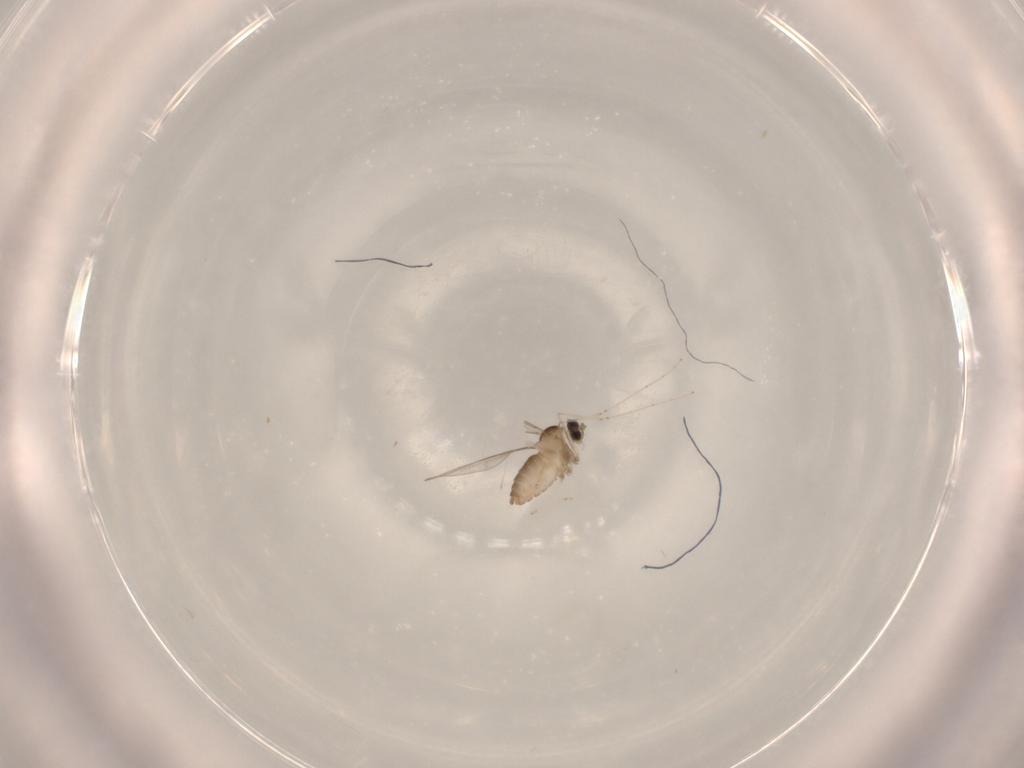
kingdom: Animalia
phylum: Arthropoda
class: Insecta
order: Diptera
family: Cecidomyiidae
